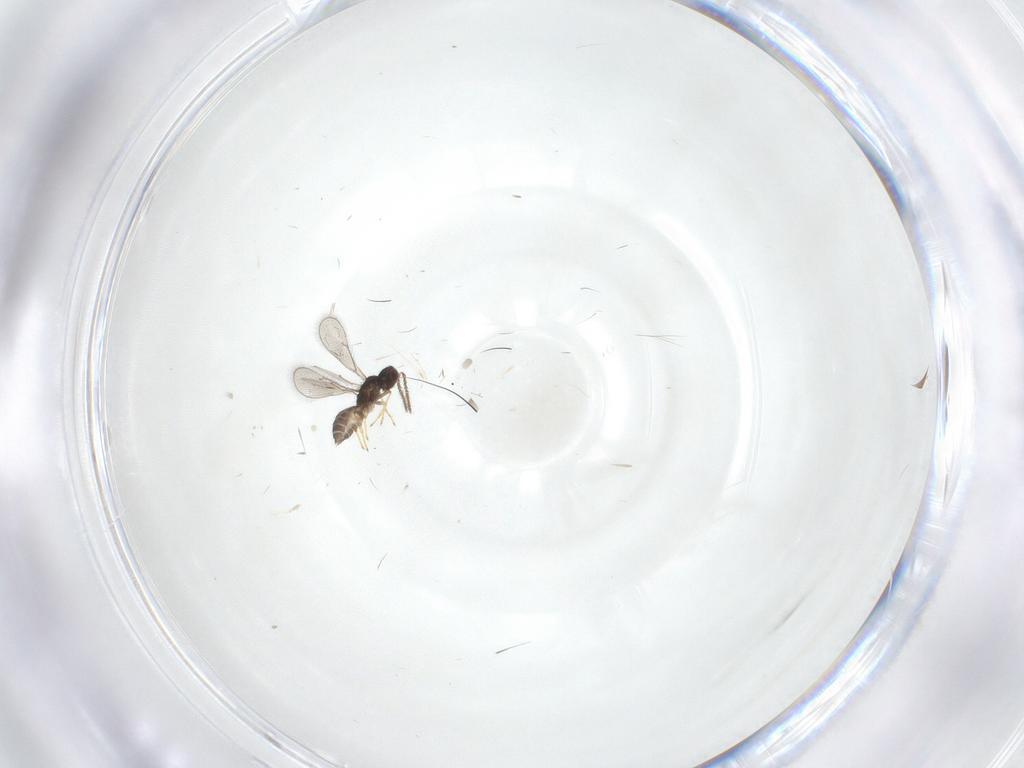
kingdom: Animalia
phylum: Arthropoda
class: Insecta
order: Hymenoptera
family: Eulophidae
